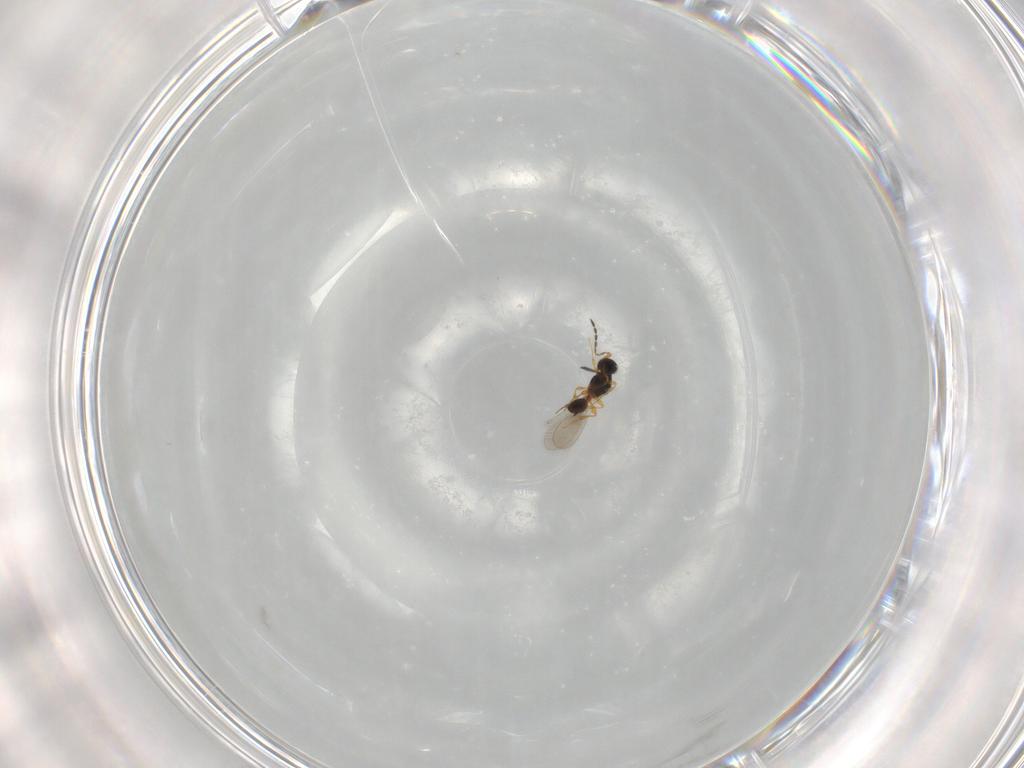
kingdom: Animalia
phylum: Arthropoda
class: Insecta
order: Hymenoptera
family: Platygastridae
